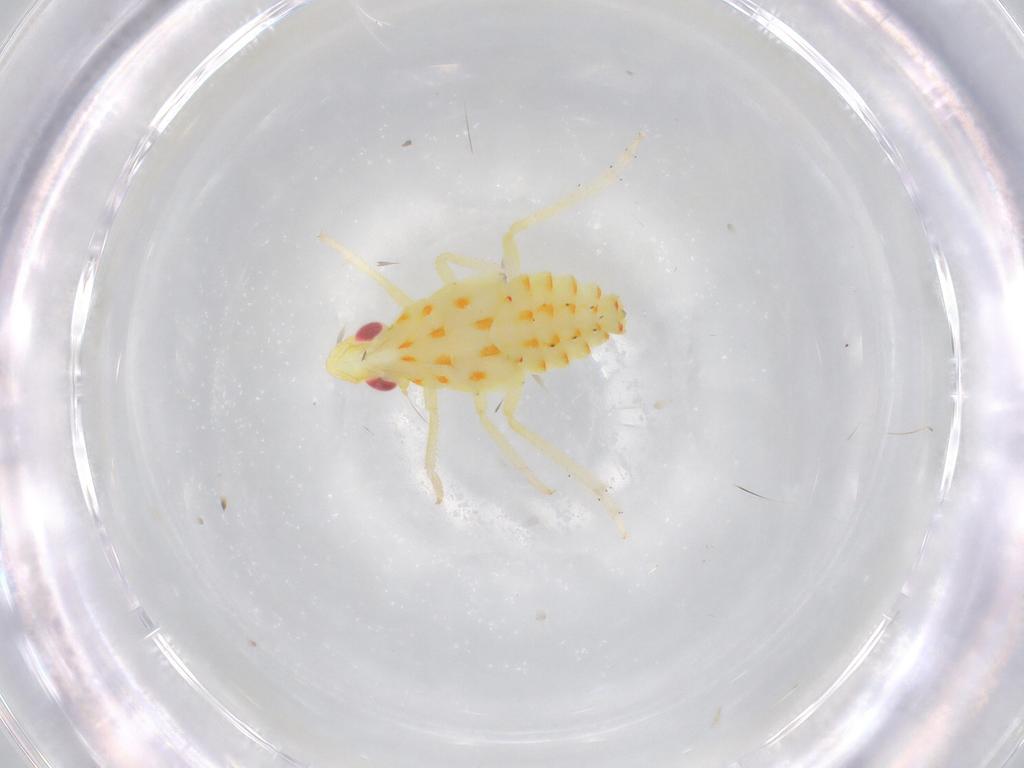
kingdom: Animalia
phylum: Arthropoda
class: Insecta
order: Hemiptera
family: Tropiduchidae
